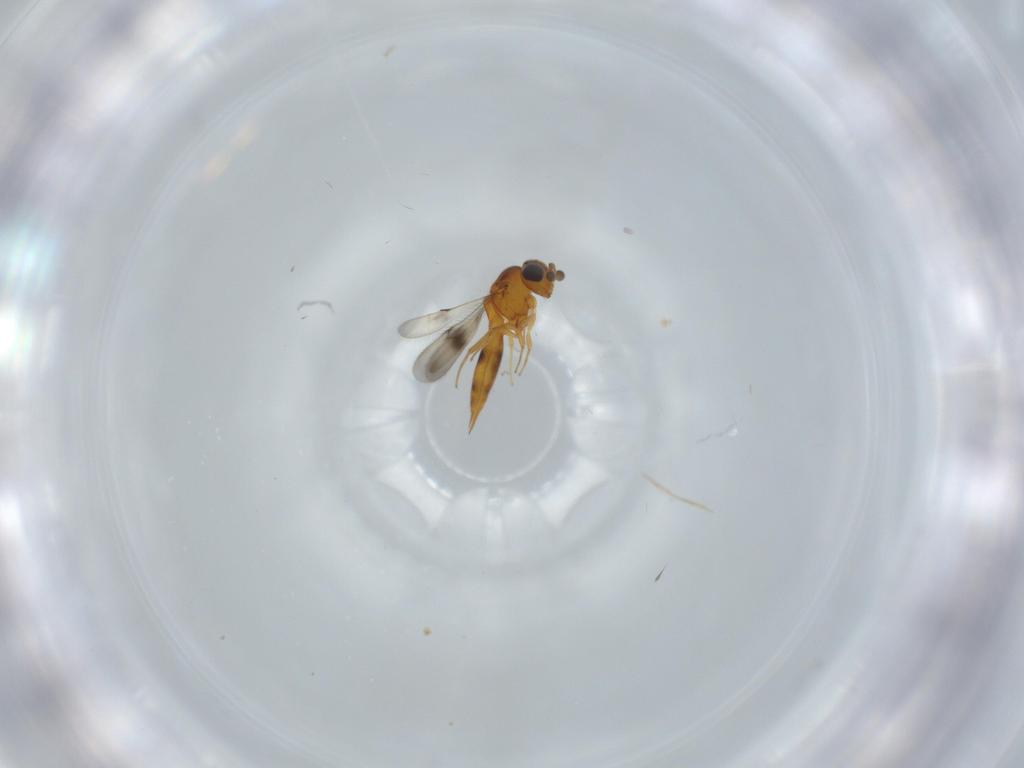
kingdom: Animalia
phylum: Arthropoda
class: Insecta
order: Hymenoptera
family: Scelionidae
